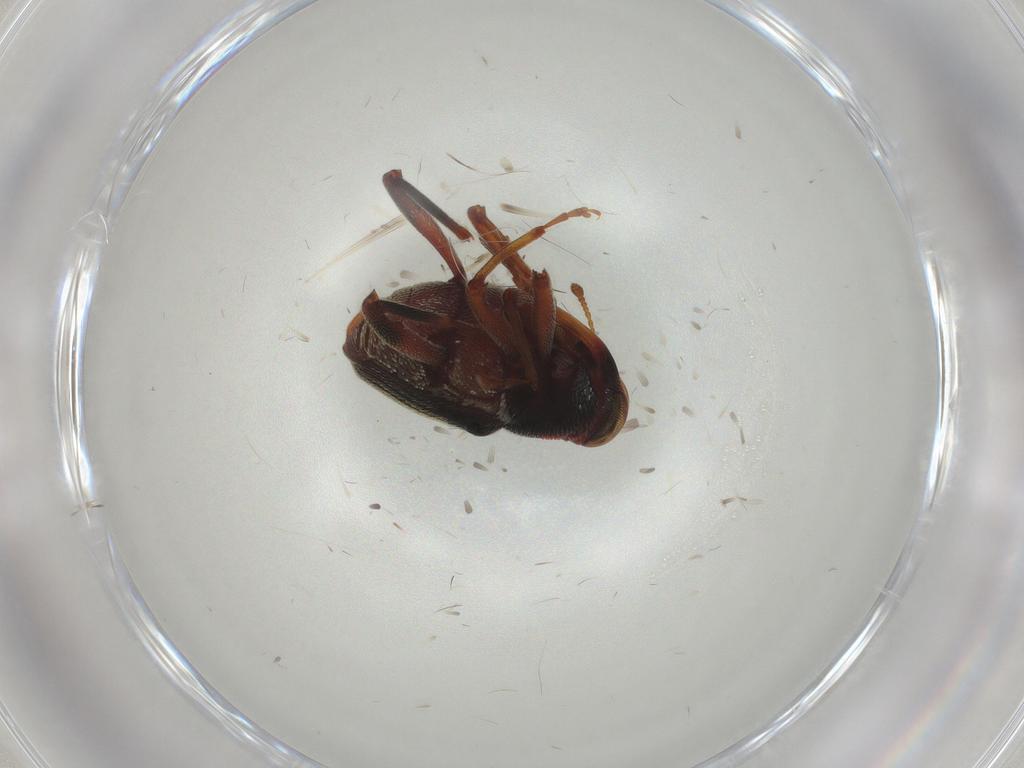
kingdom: Animalia
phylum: Arthropoda
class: Insecta
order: Coleoptera
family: Curculionidae
